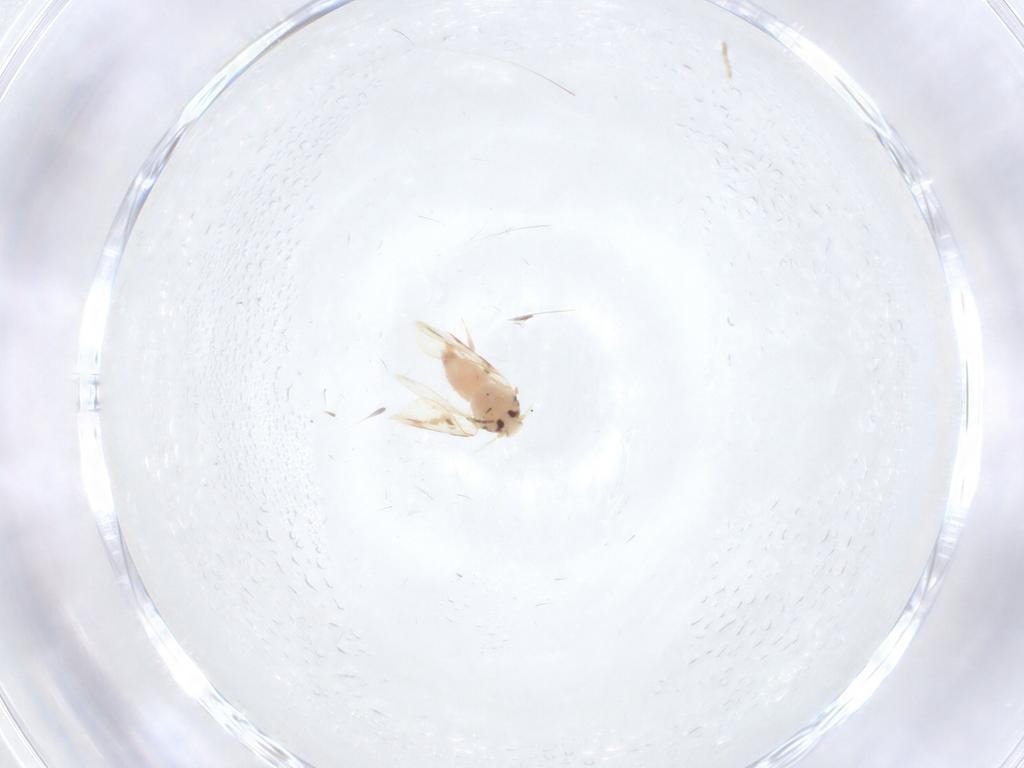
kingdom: Animalia
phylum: Arthropoda
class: Insecta
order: Hemiptera
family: Aleyrodidae
